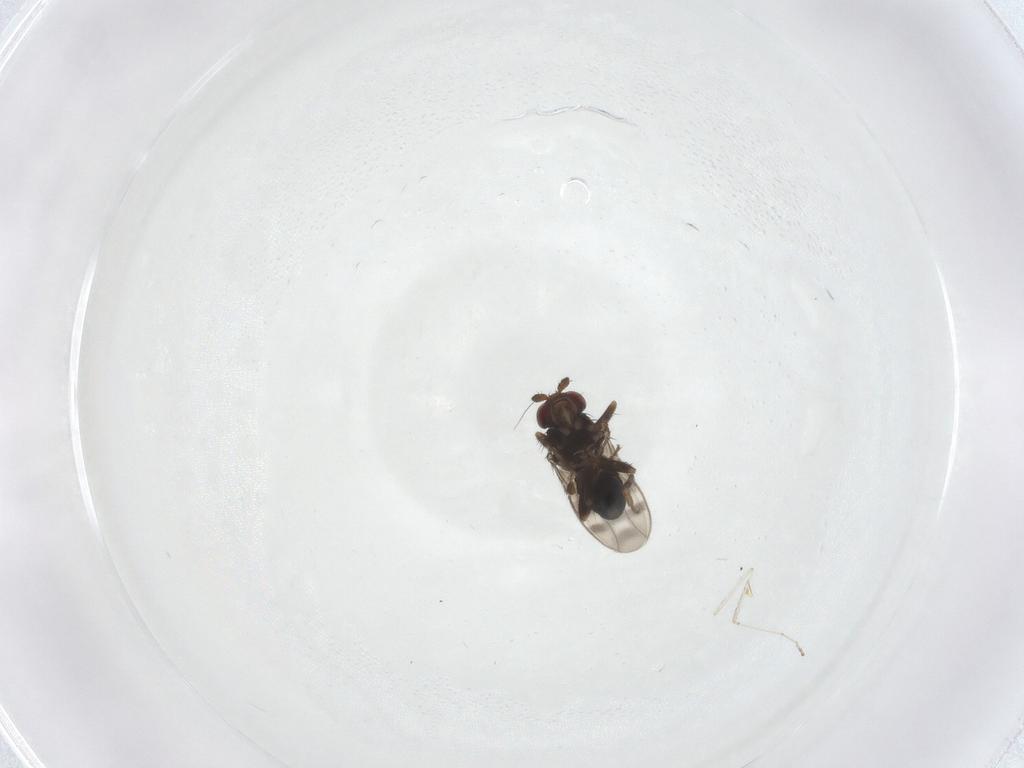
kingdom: Animalia
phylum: Arthropoda
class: Insecta
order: Diptera
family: Sphaeroceridae
